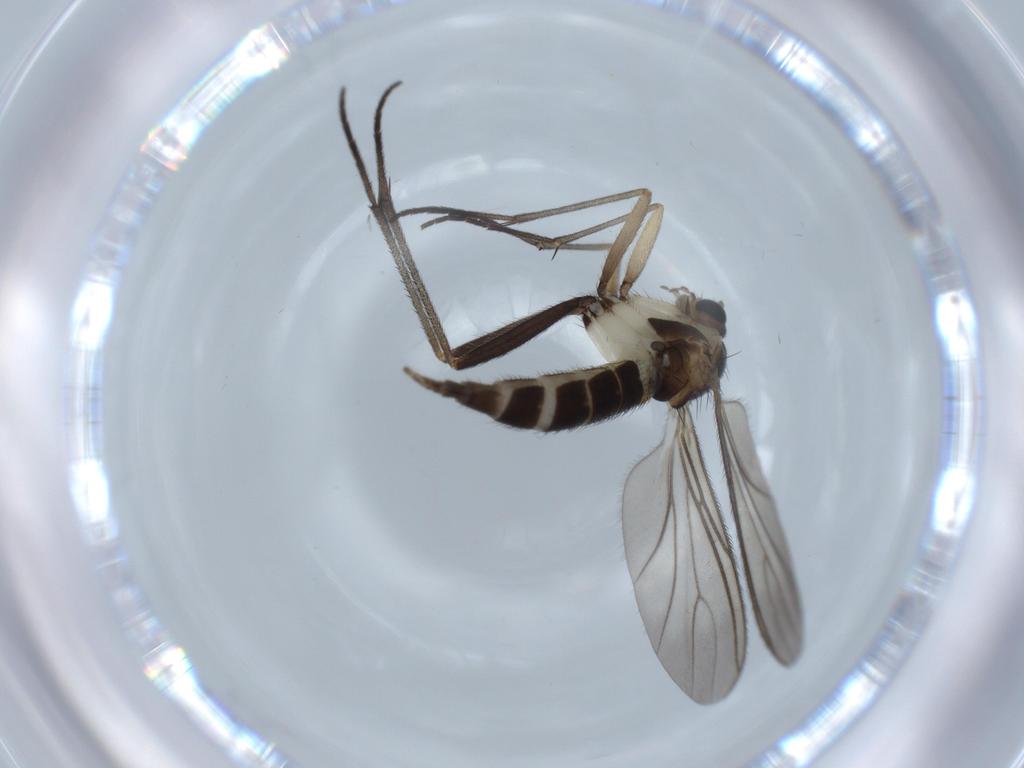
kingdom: Animalia
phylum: Arthropoda
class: Insecta
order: Diptera
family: Sciaridae
